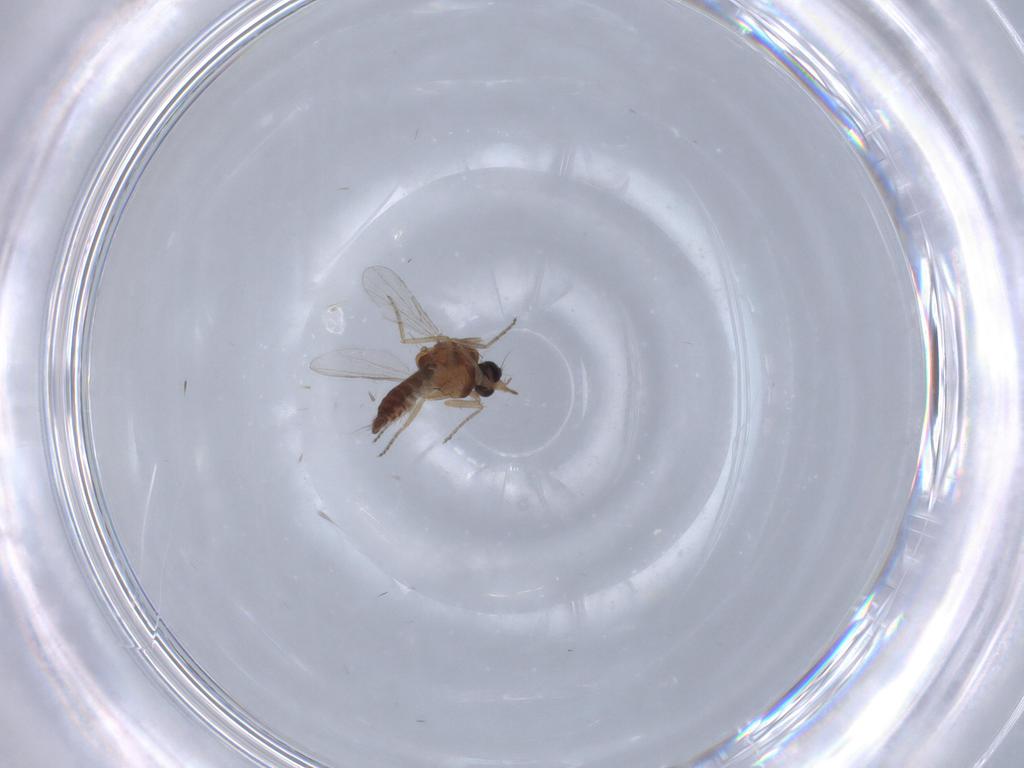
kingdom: Animalia
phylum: Arthropoda
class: Insecta
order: Diptera
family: Ceratopogonidae
